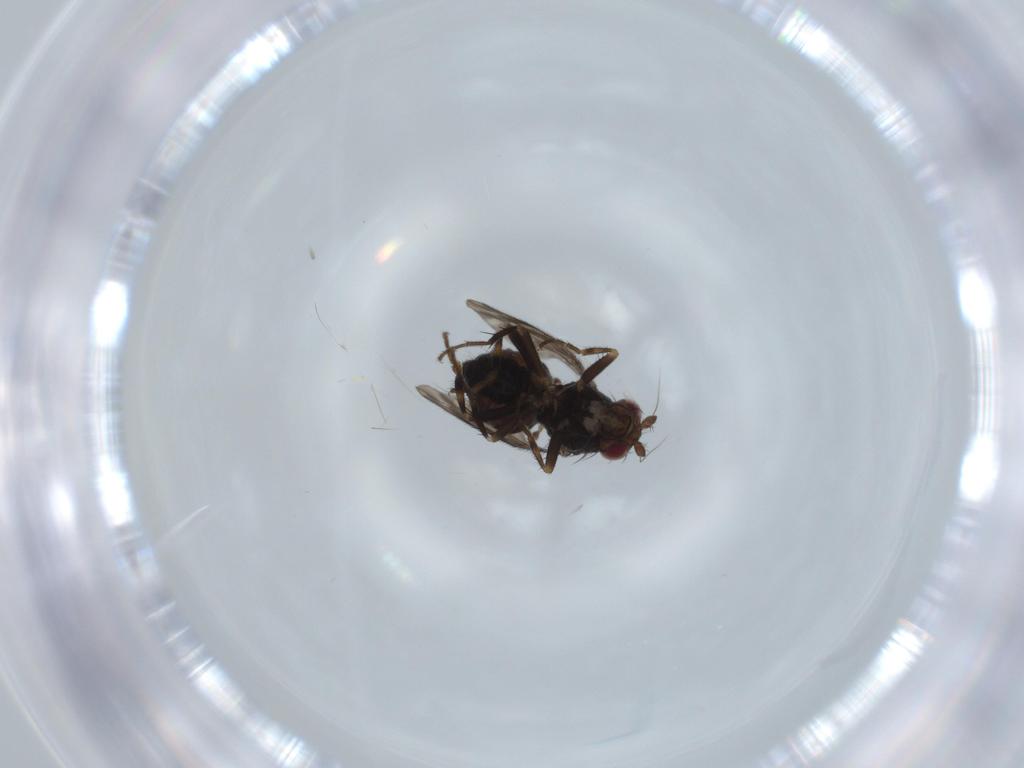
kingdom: Animalia
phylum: Arthropoda
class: Insecta
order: Diptera
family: Sphaeroceridae
